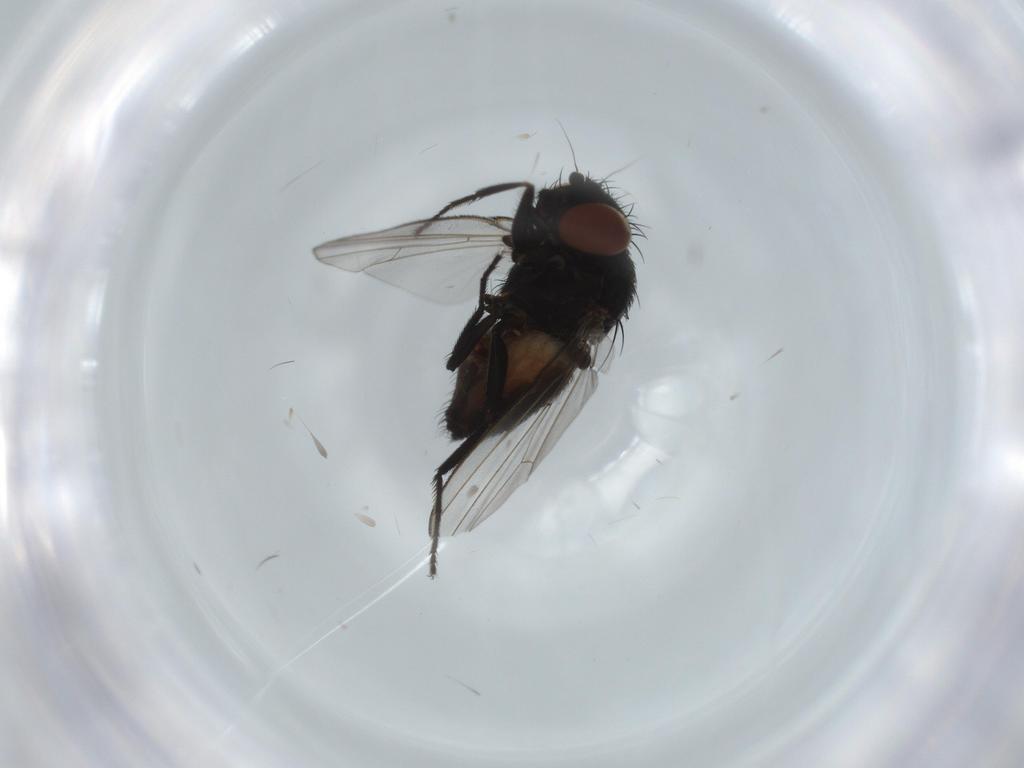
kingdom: Animalia
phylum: Arthropoda
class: Insecta
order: Diptera
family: Milichiidae
